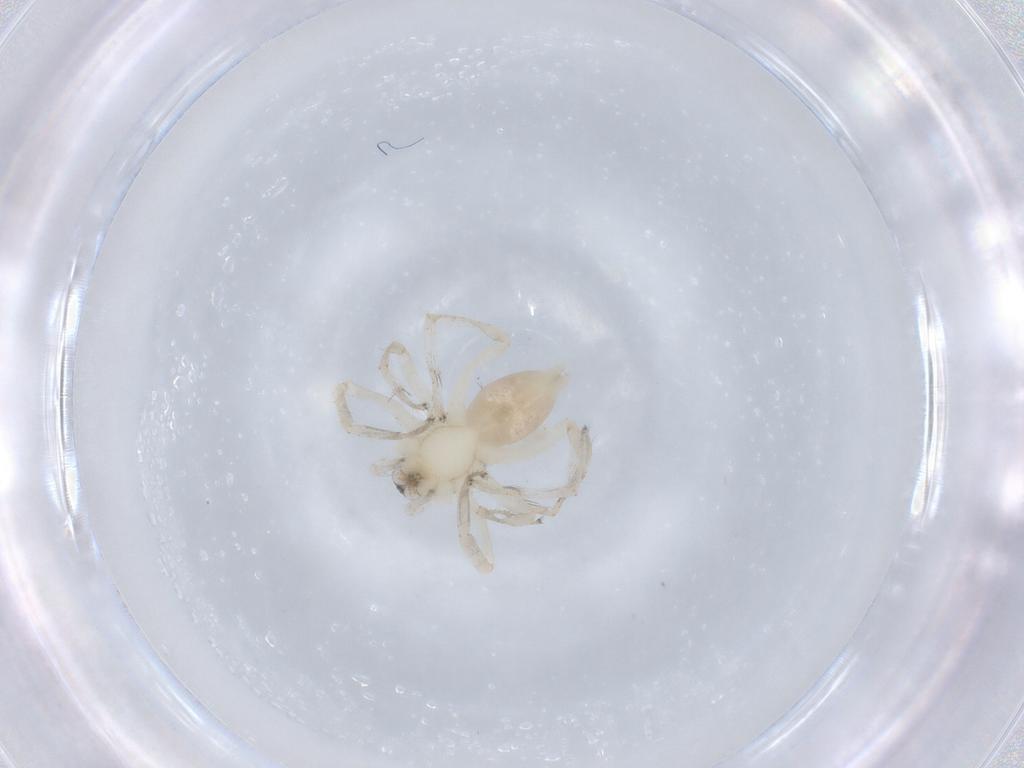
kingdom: Animalia
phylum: Arthropoda
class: Arachnida
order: Araneae
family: Anyphaenidae
